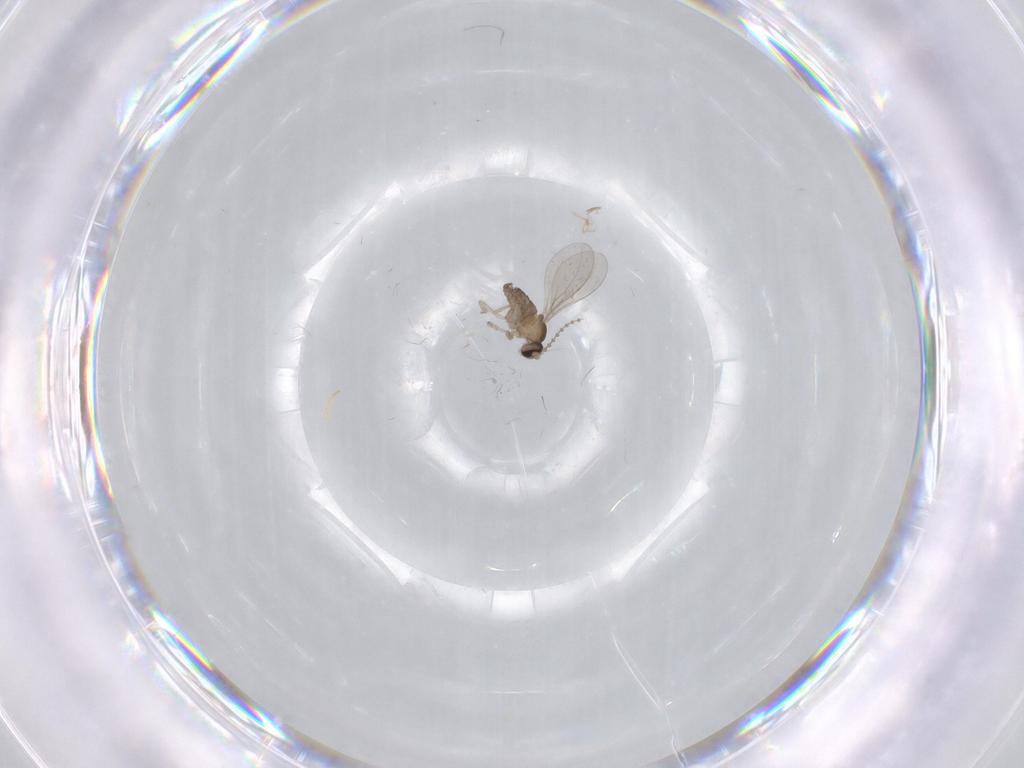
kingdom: Animalia
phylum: Arthropoda
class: Insecta
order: Diptera
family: Cecidomyiidae
